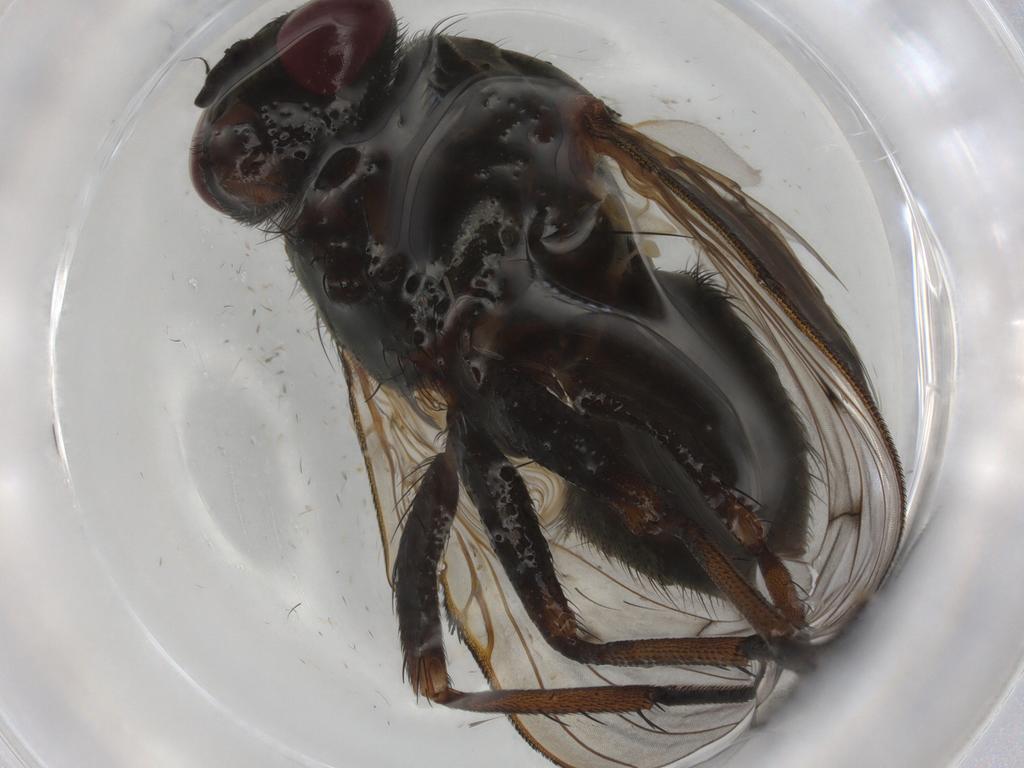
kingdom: Animalia
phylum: Arthropoda
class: Insecta
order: Diptera
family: Muscidae
